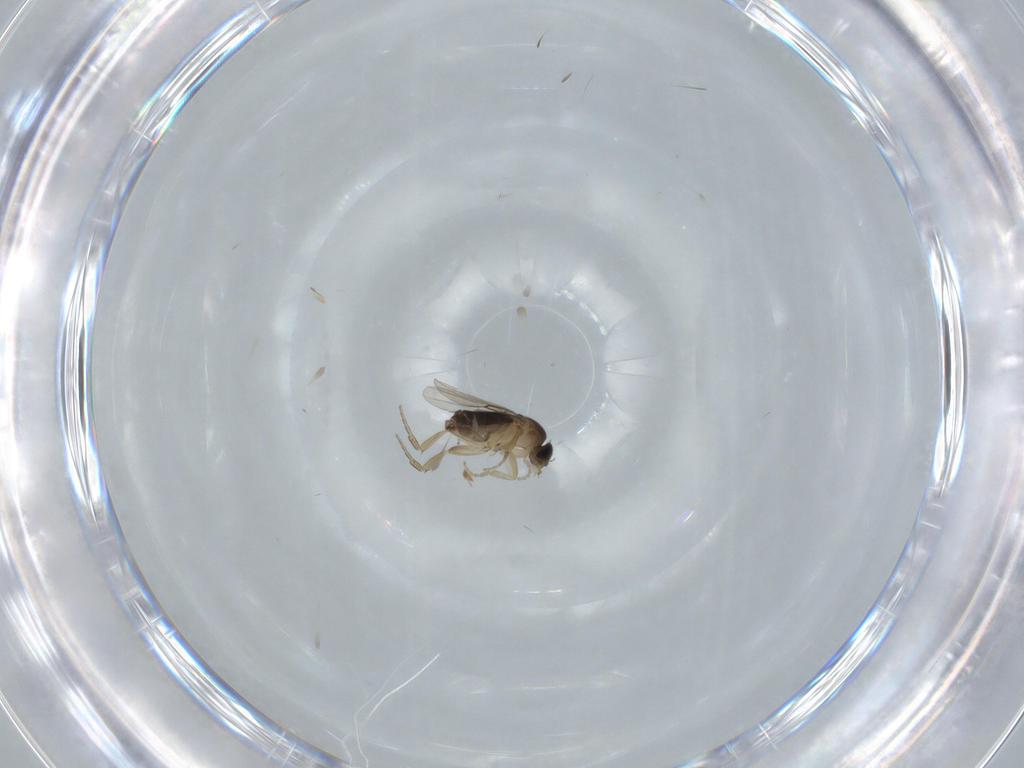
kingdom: Animalia
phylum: Arthropoda
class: Insecta
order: Diptera
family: Phoridae
